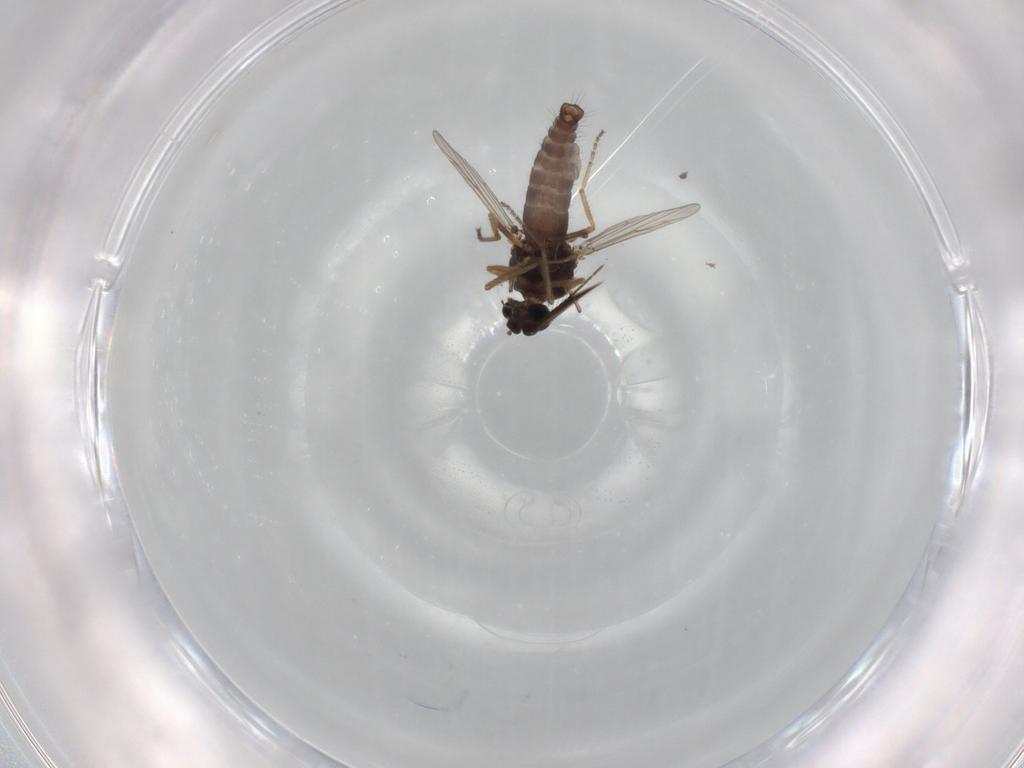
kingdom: Animalia
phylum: Arthropoda
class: Insecta
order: Diptera
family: Ceratopogonidae
